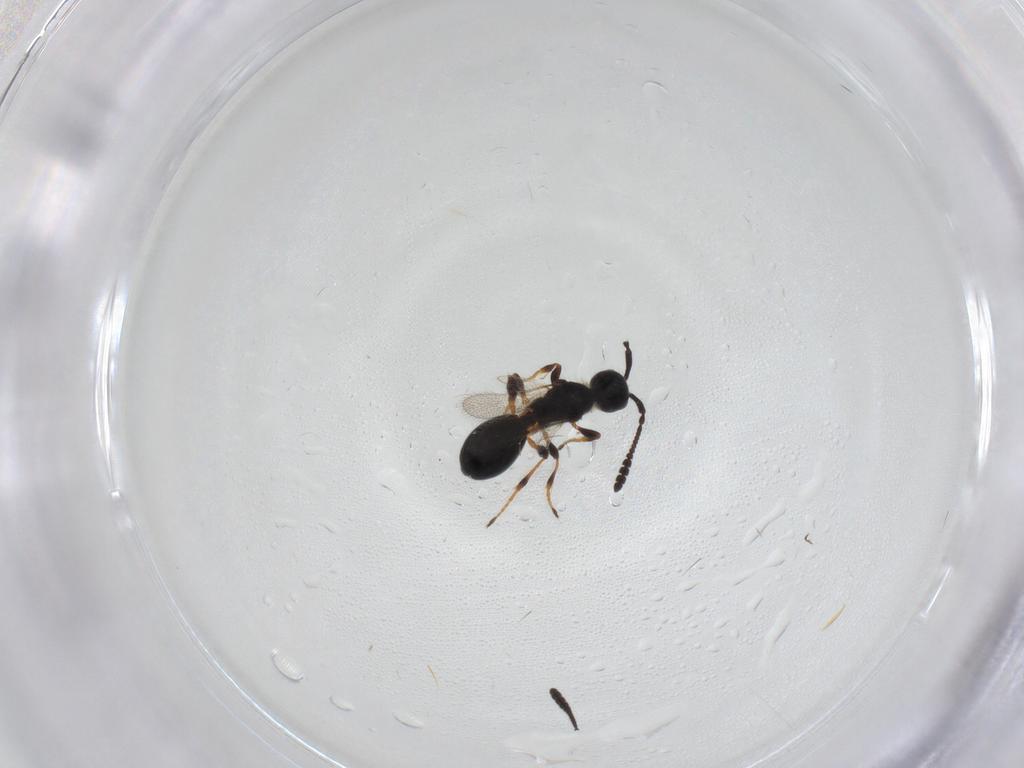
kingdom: Animalia
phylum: Arthropoda
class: Insecta
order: Hymenoptera
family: Diapriidae
